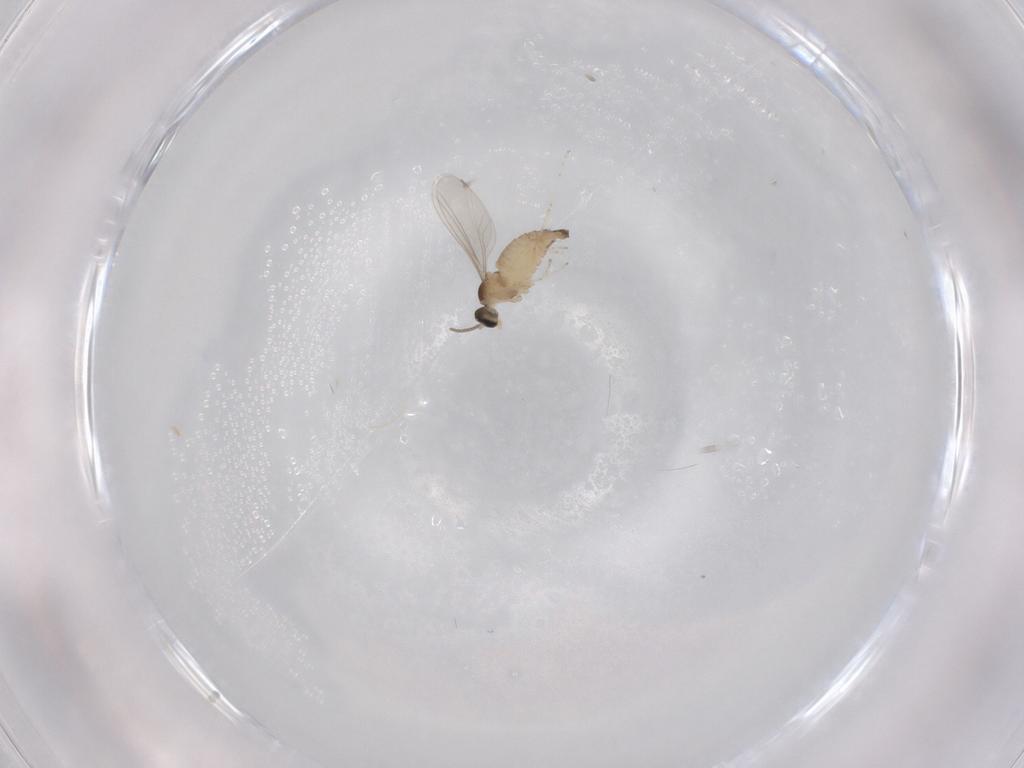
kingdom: Animalia
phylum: Arthropoda
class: Insecta
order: Diptera
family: Cecidomyiidae
